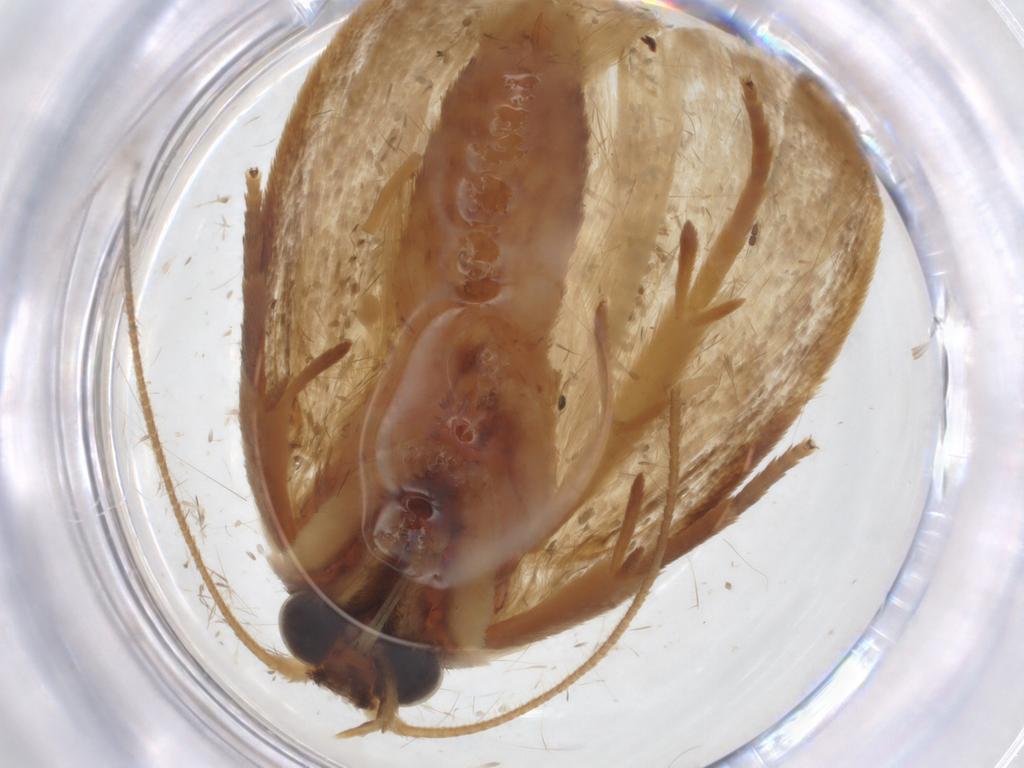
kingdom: Animalia
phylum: Arthropoda
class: Insecta
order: Lepidoptera
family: Erebidae
